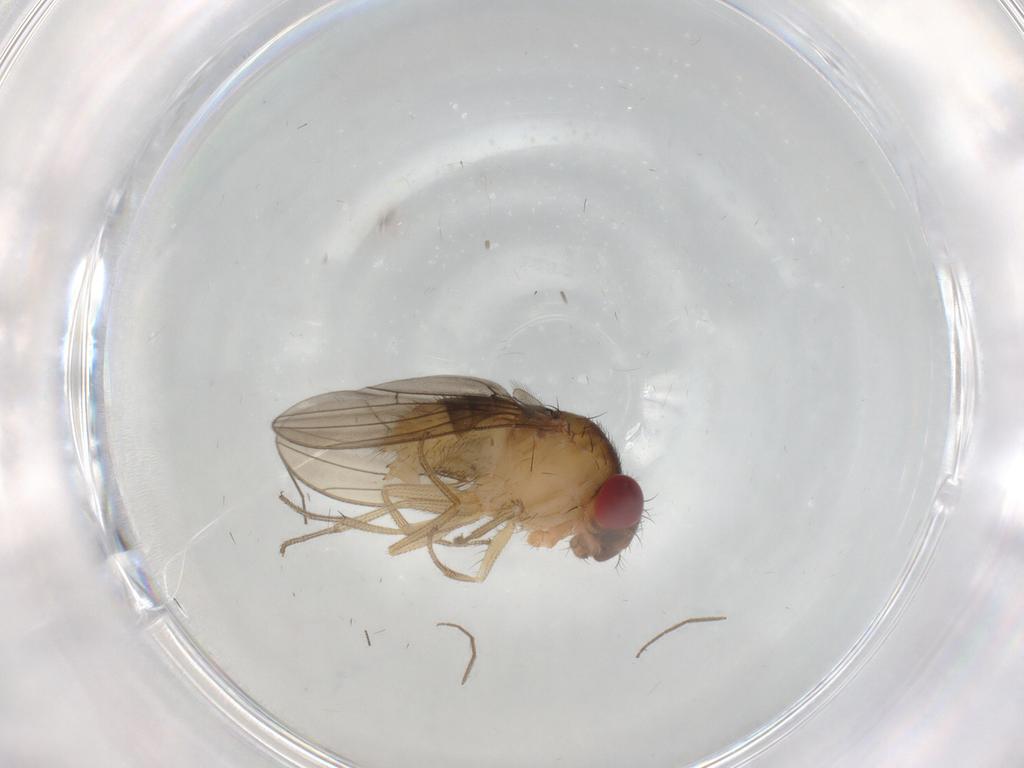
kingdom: Animalia
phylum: Arthropoda
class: Insecta
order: Diptera
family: Drosophilidae
